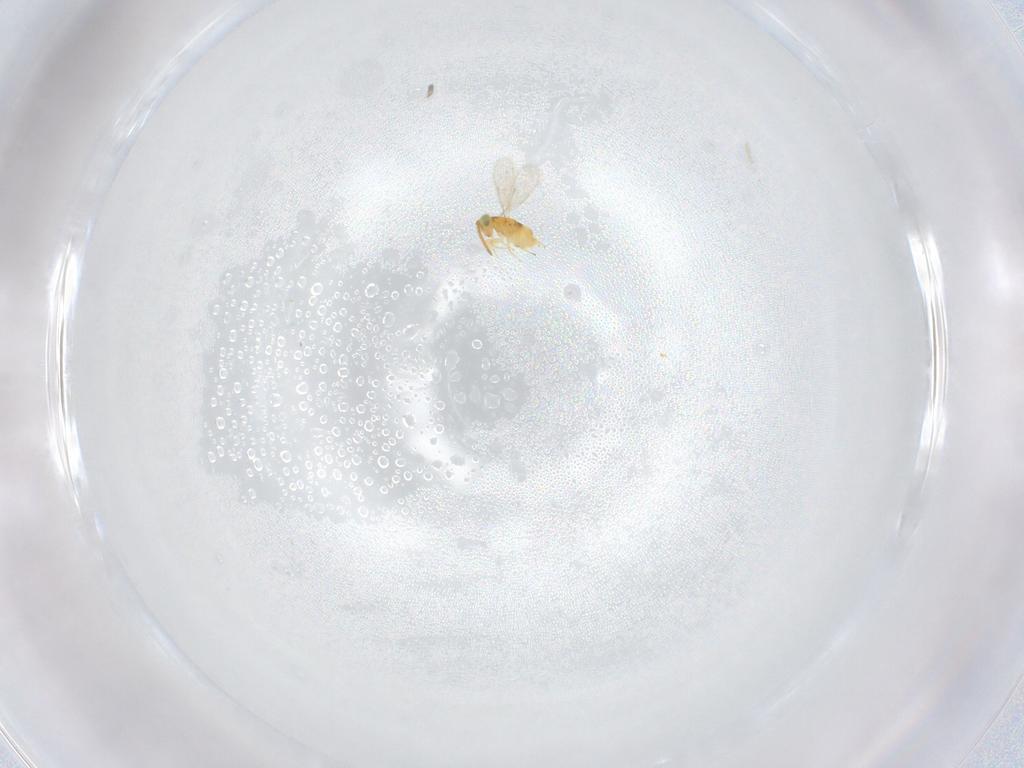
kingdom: Animalia
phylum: Arthropoda
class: Insecta
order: Hymenoptera
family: Aphelinidae
